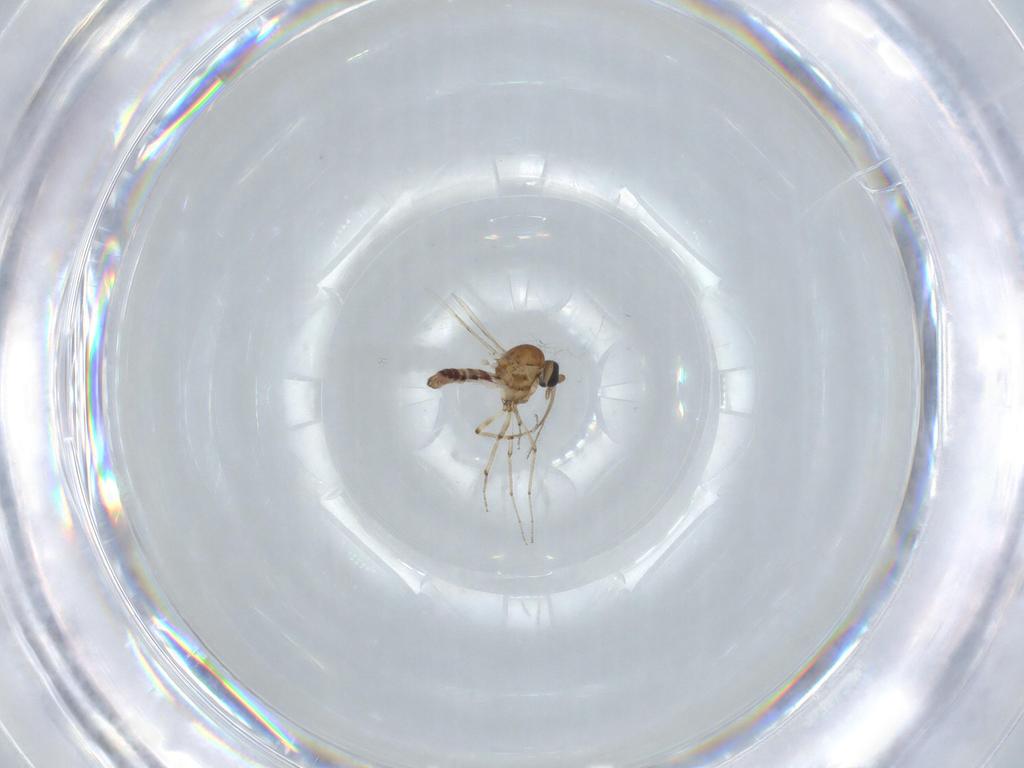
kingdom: Animalia
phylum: Arthropoda
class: Insecta
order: Diptera
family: Ceratopogonidae
